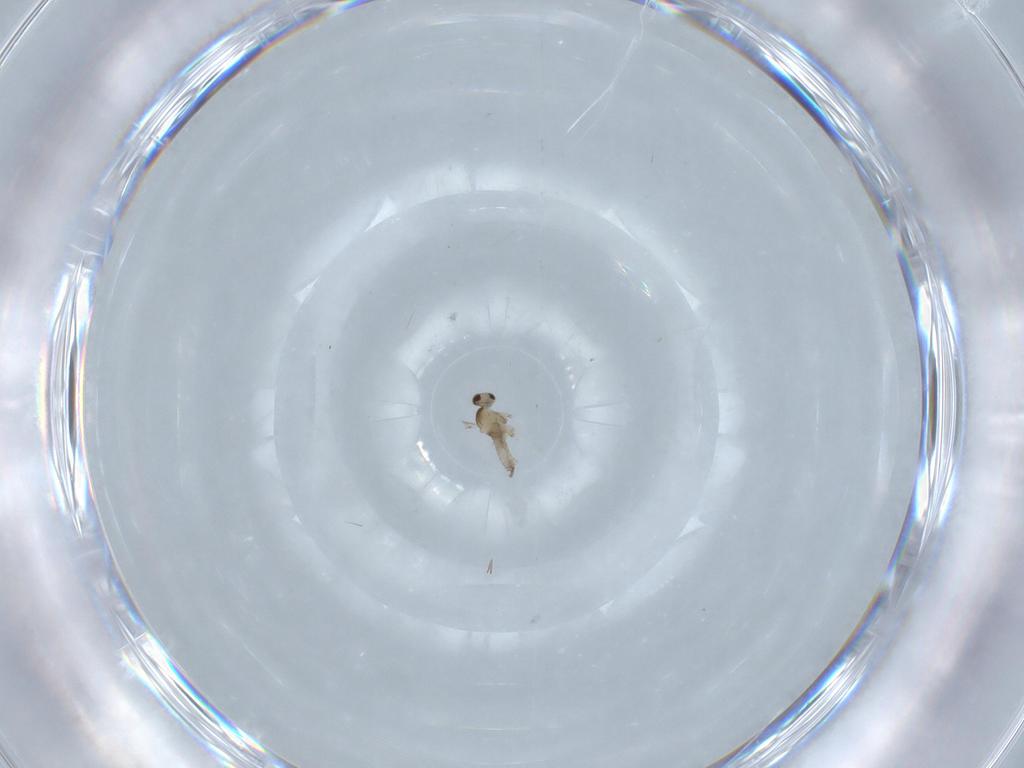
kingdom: Animalia
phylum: Arthropoda
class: Insecta
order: Diptera
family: Cecidomyiidae
